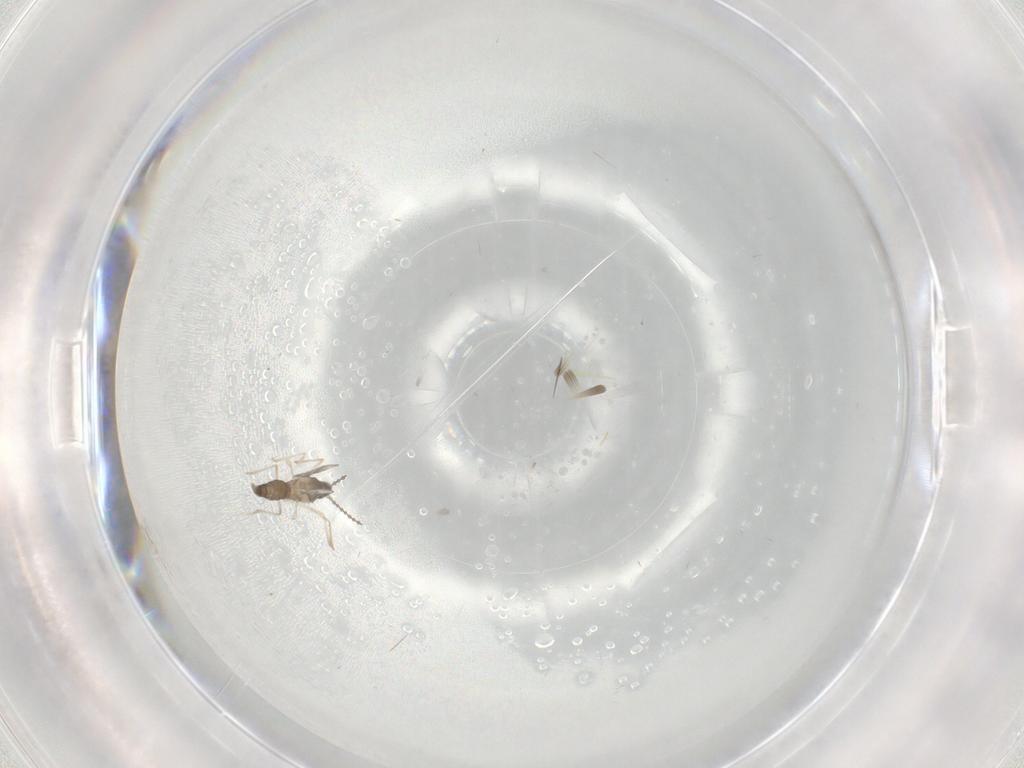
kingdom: Animalia
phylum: Arthropoda
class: Insecta
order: Diptera
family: Cecidomyiidae
